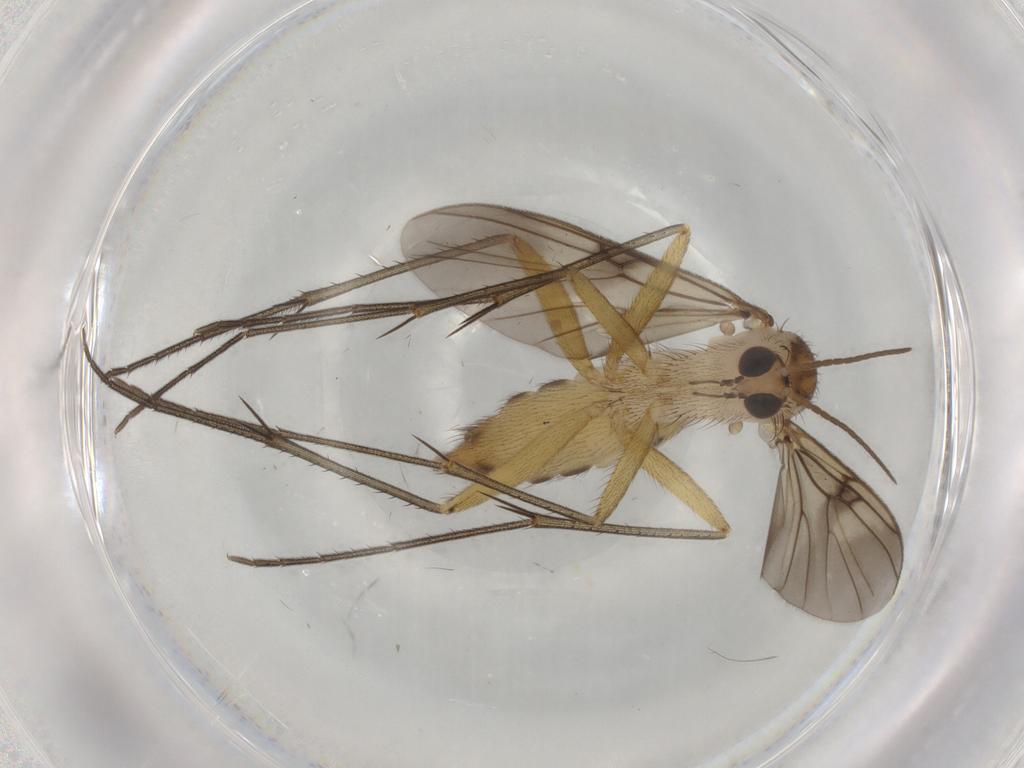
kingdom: Animalia
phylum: Arthropoda
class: Insecta
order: Diptera
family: Mycetophilidae
